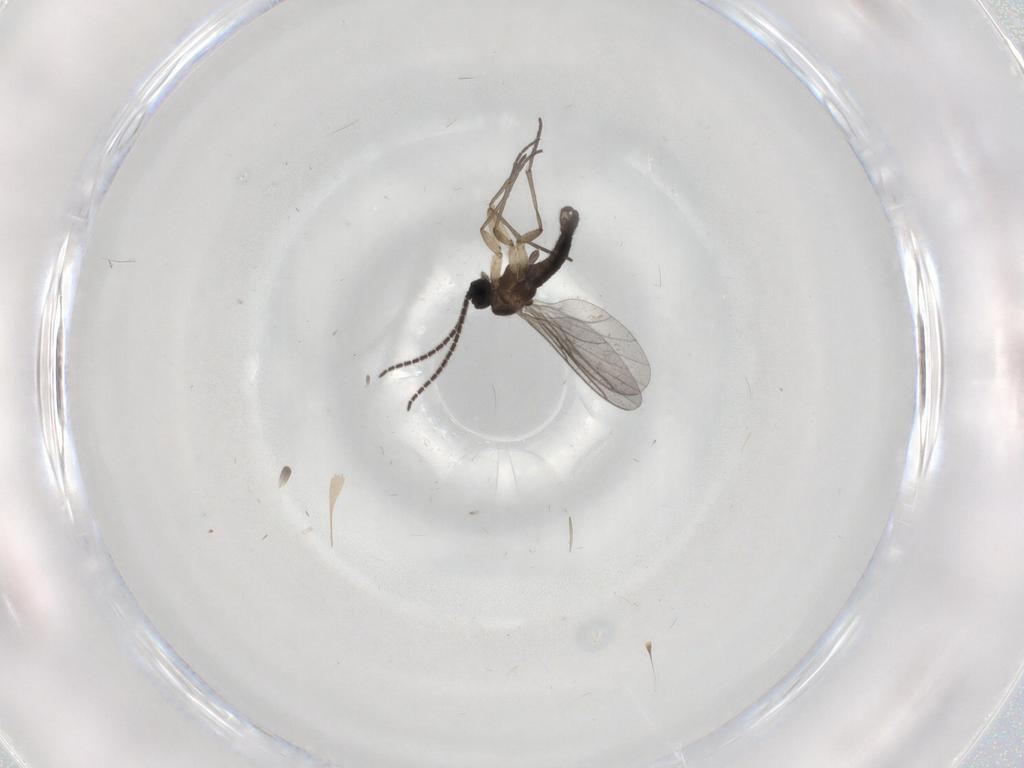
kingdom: Animalia
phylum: Arthropoda
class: Insecta
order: Diptera
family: Sciaridae
